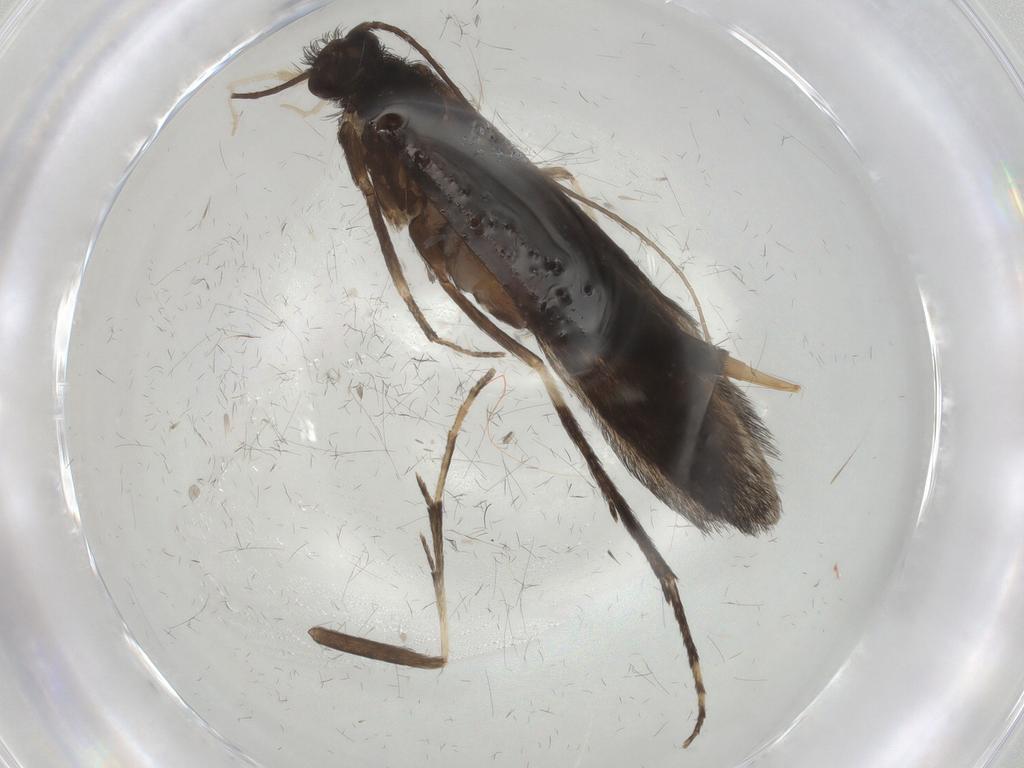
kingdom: Animalia
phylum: Arthropoda
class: Insecta
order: Trichoptera
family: Xiphocentronidae
